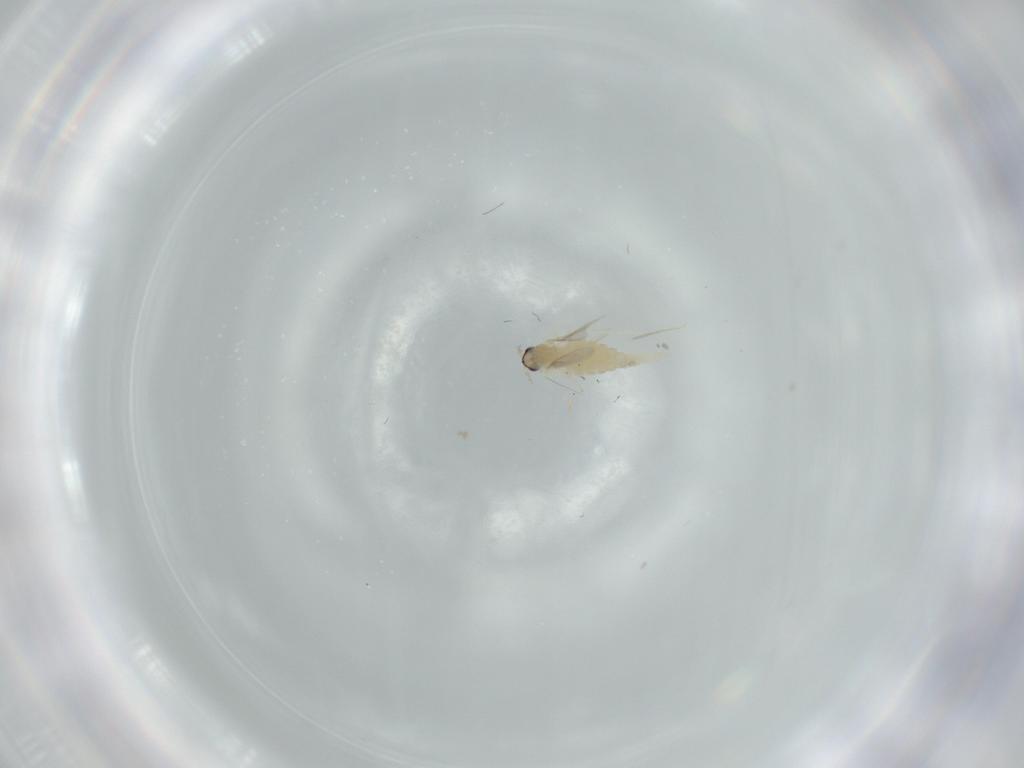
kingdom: Animalia
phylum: Arthropoda
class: Insecta
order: Diptera
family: Cecidomyiidae
